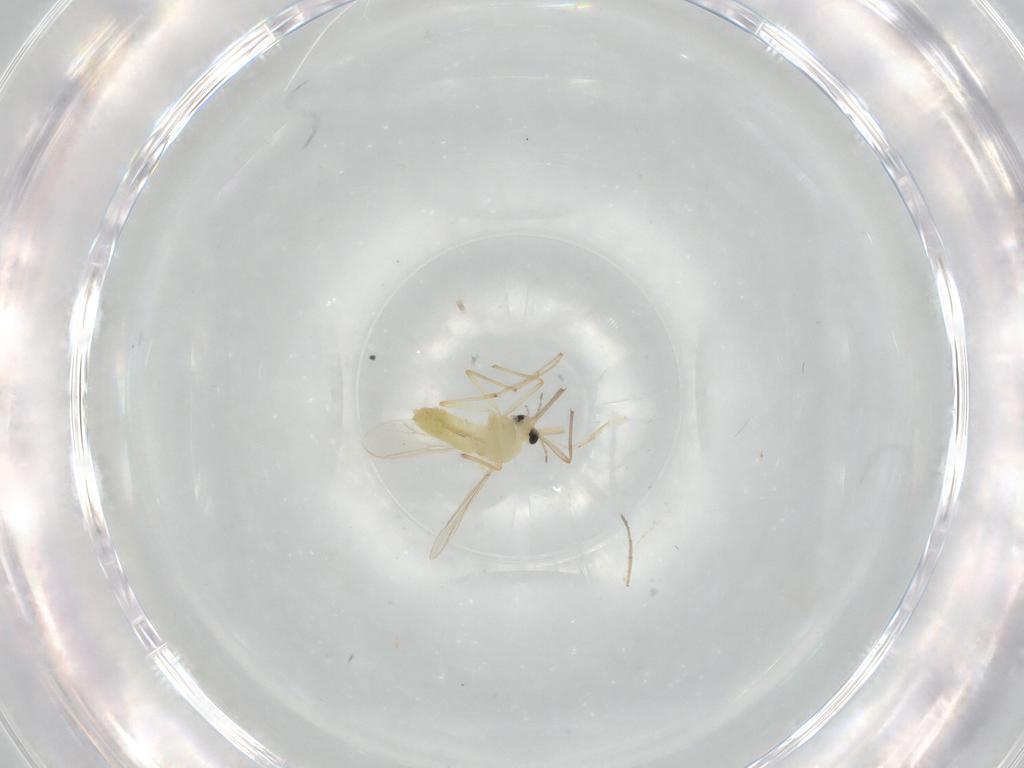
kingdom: Animalia
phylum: Arthropoda
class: Insecta
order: Diptera
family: Chironomidae
